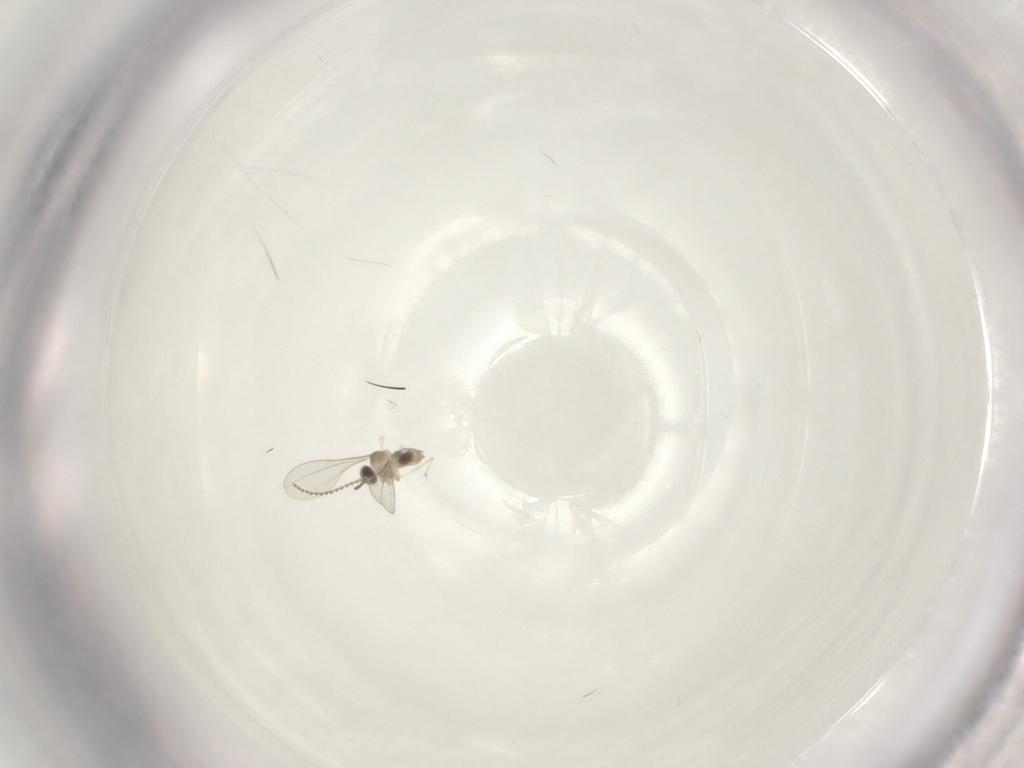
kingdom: Animalia
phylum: Arthropoda
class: Insecta
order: Diptera
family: Cecidomyiidae
